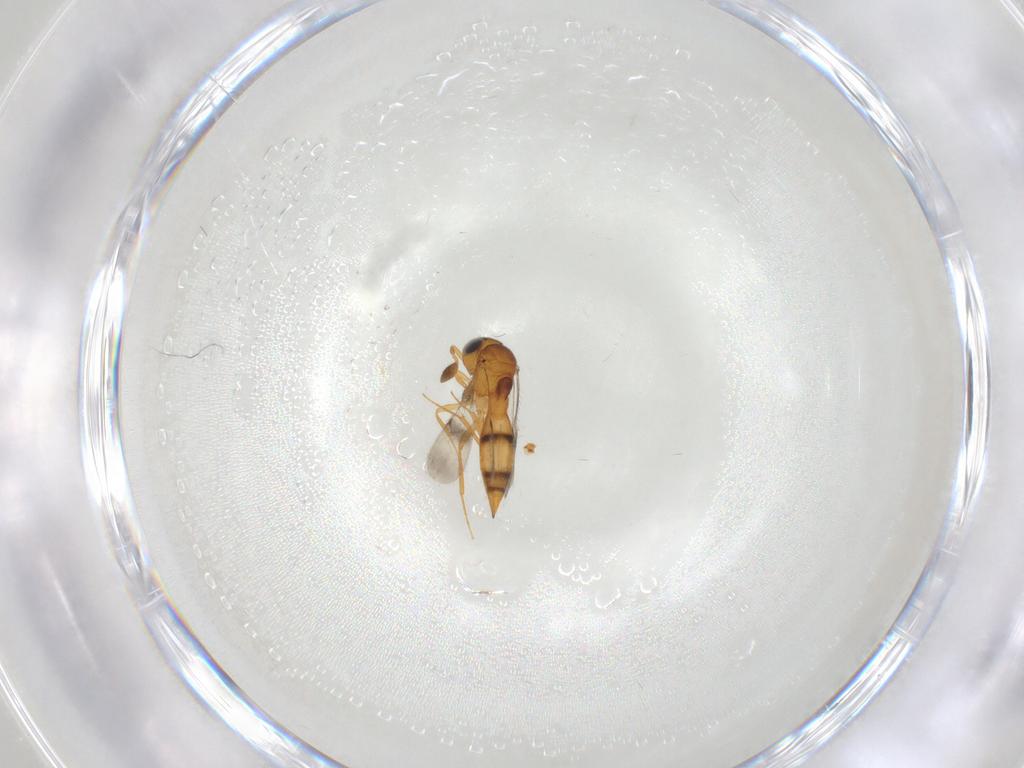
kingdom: Animalia
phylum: Arthropoda
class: Insecta
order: Hymenoptera
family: Scelionidae
